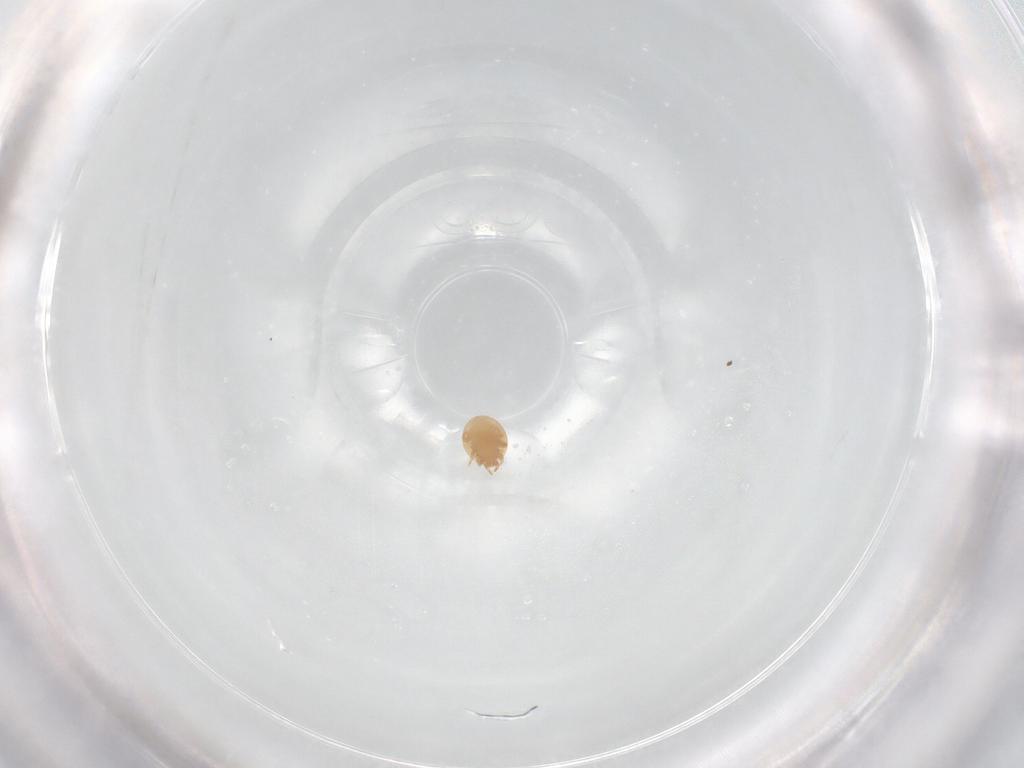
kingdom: Animalia
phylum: Arthropoda
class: Arachnida
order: Mesostigmata
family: Trematuridae
